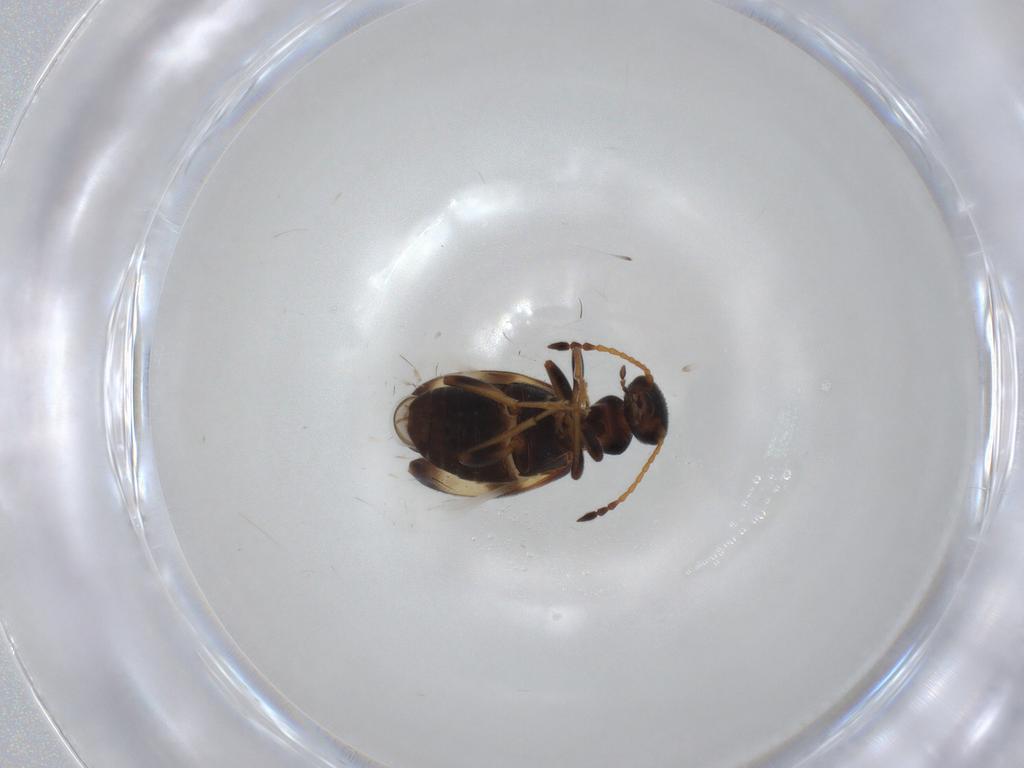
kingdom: Animalia
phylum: Arthropoda
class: Insecta
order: Coleoptera
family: Anthicidae
